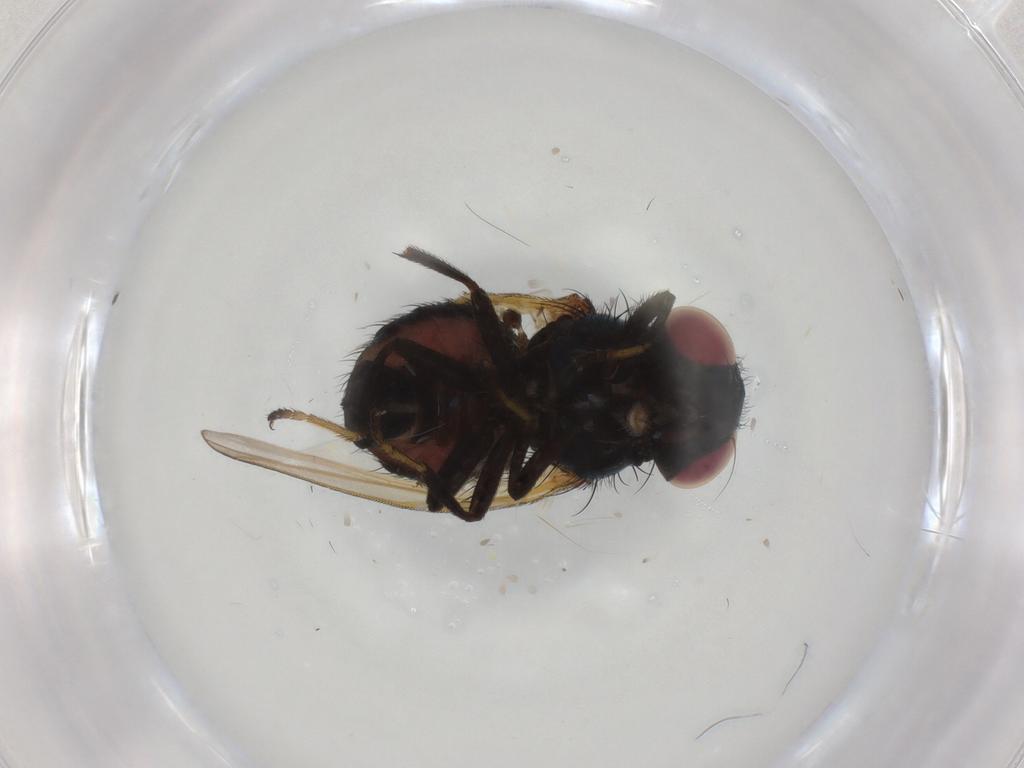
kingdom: Animalia
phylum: Arthropoda
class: Insecta
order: Diptera
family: Lonchaeidae
